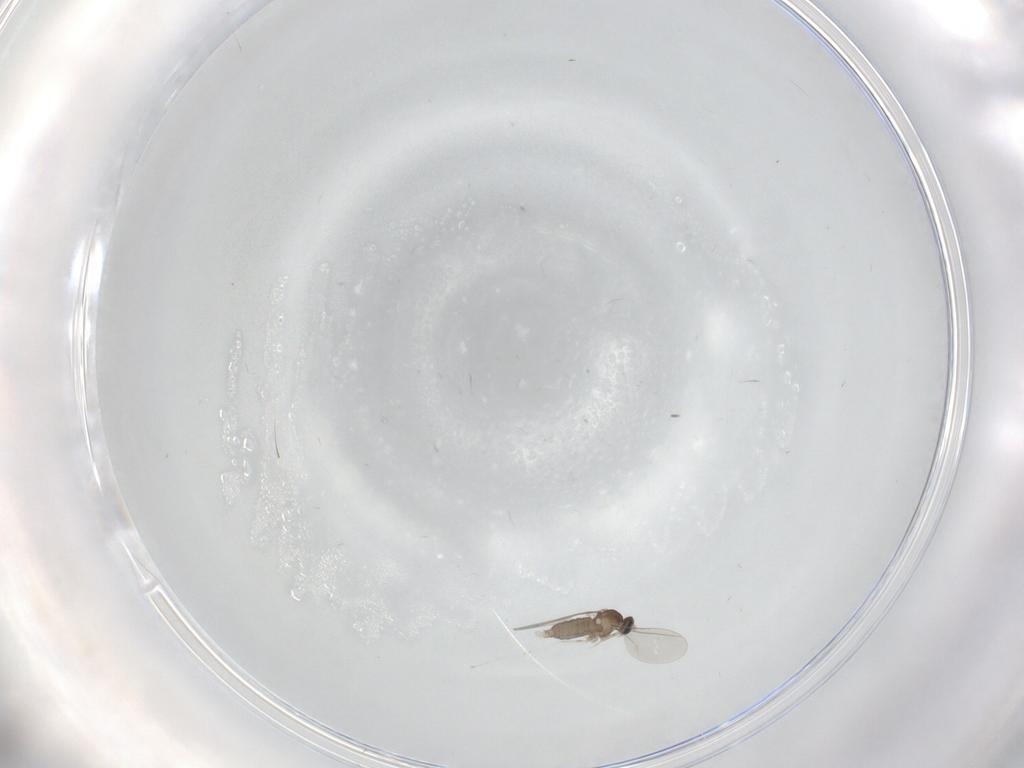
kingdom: Animalia
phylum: Arthropoda
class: Insecta
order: Diptera
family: Cecidomyiidae
